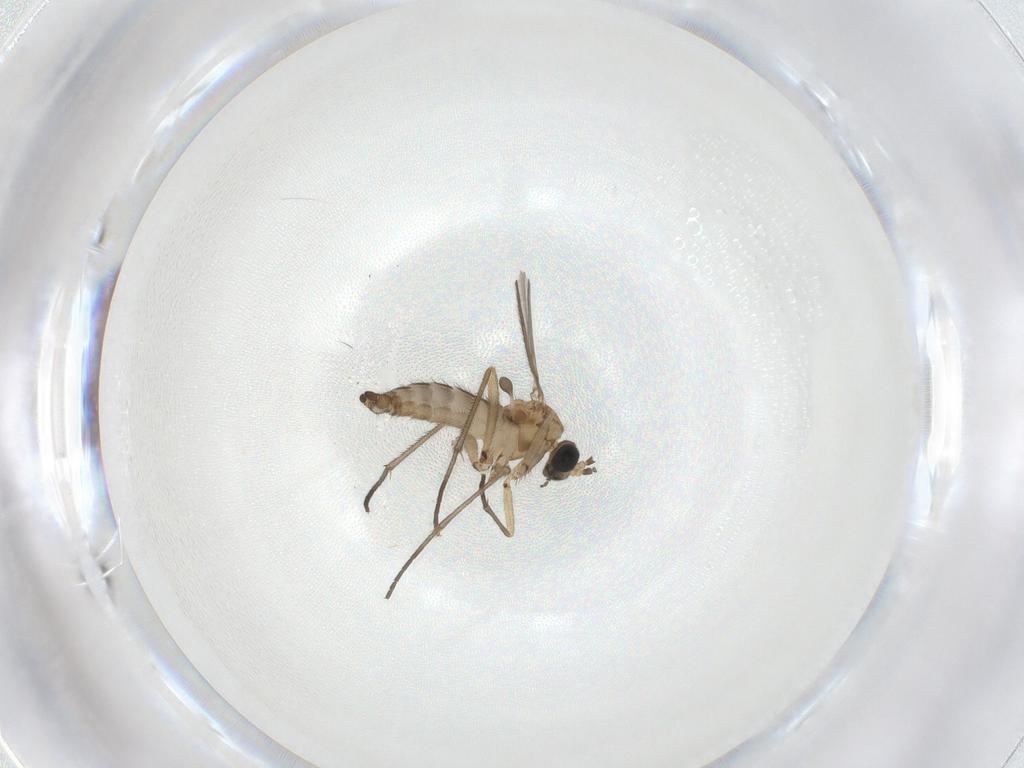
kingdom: Animalia
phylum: Arthropoda
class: Insecta
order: Diptera
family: Sciaridae
